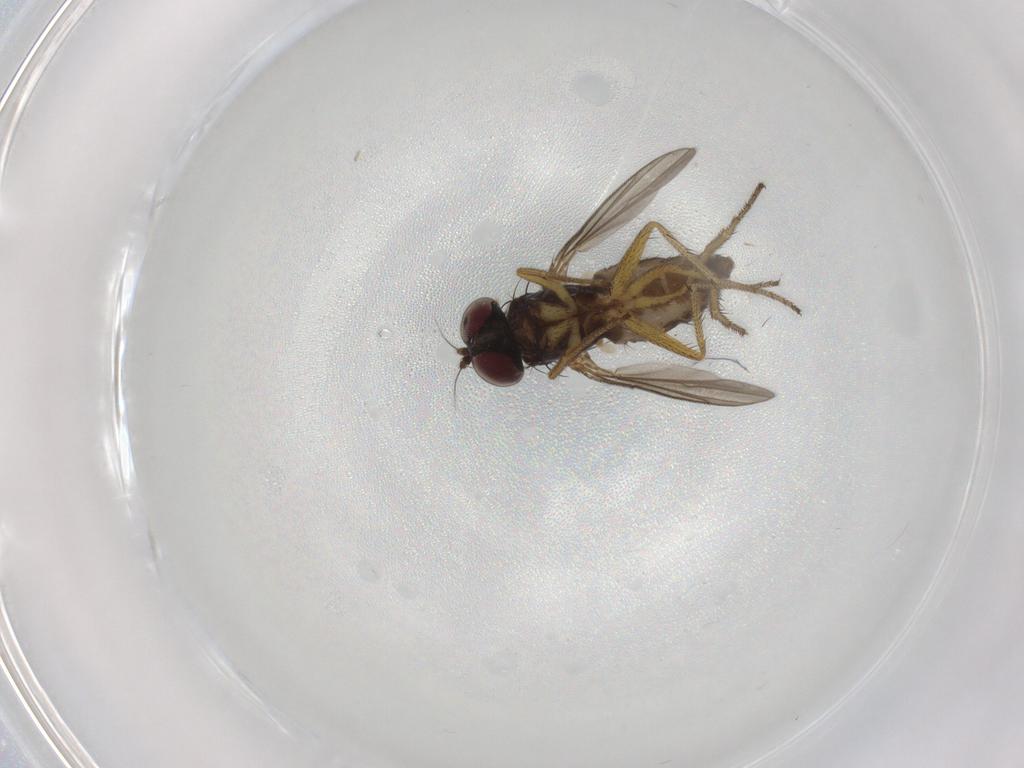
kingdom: Animalia
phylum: Arthropoda
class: Insecta
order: Diptera
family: Dolichopodidae
